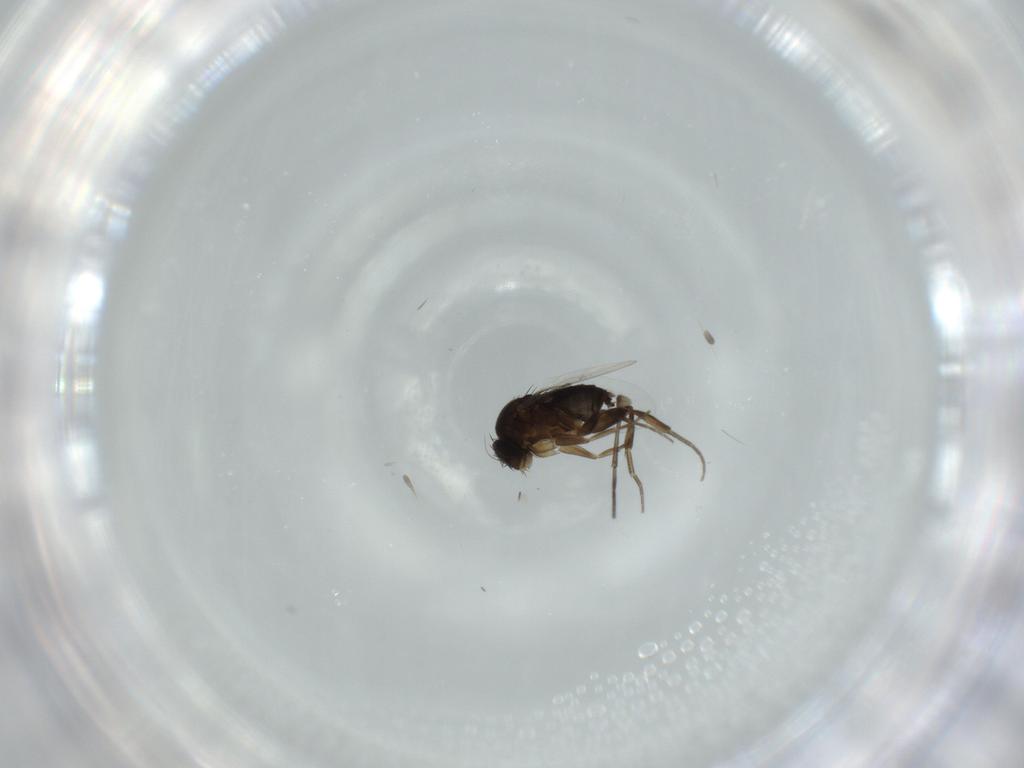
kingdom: Animalia
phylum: Arthropoda
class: Insecta
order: Diptera
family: Phoridae
